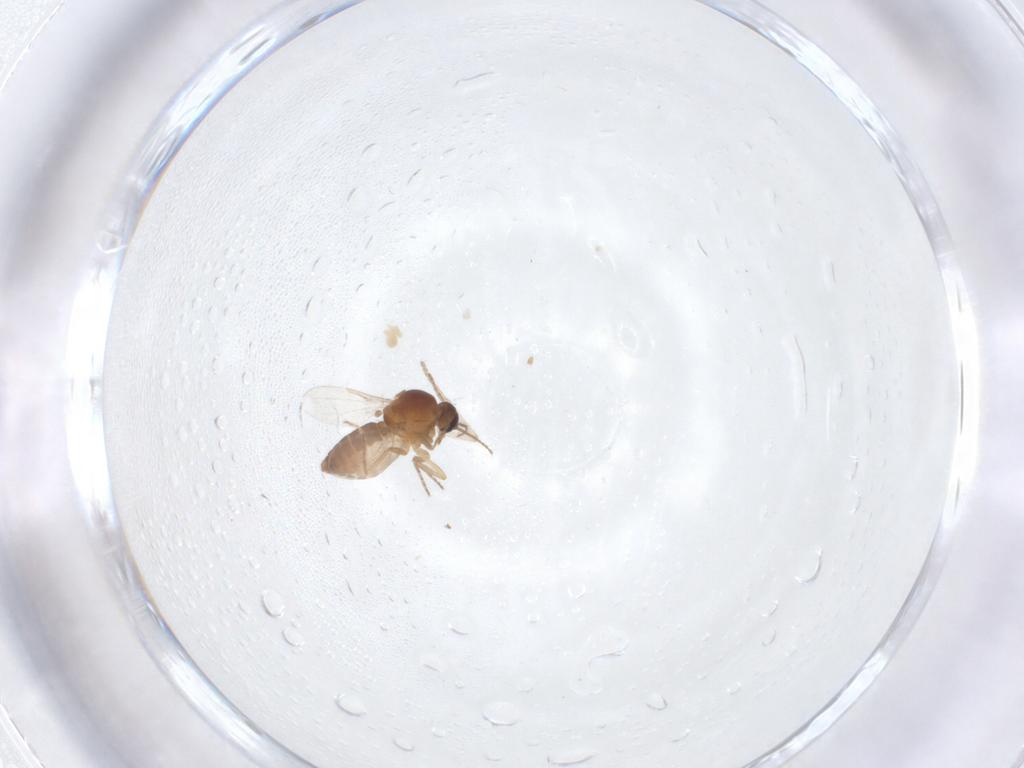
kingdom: Animalia
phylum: Arthropoda
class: Insecta
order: Diptera
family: Ceratopogonidae
